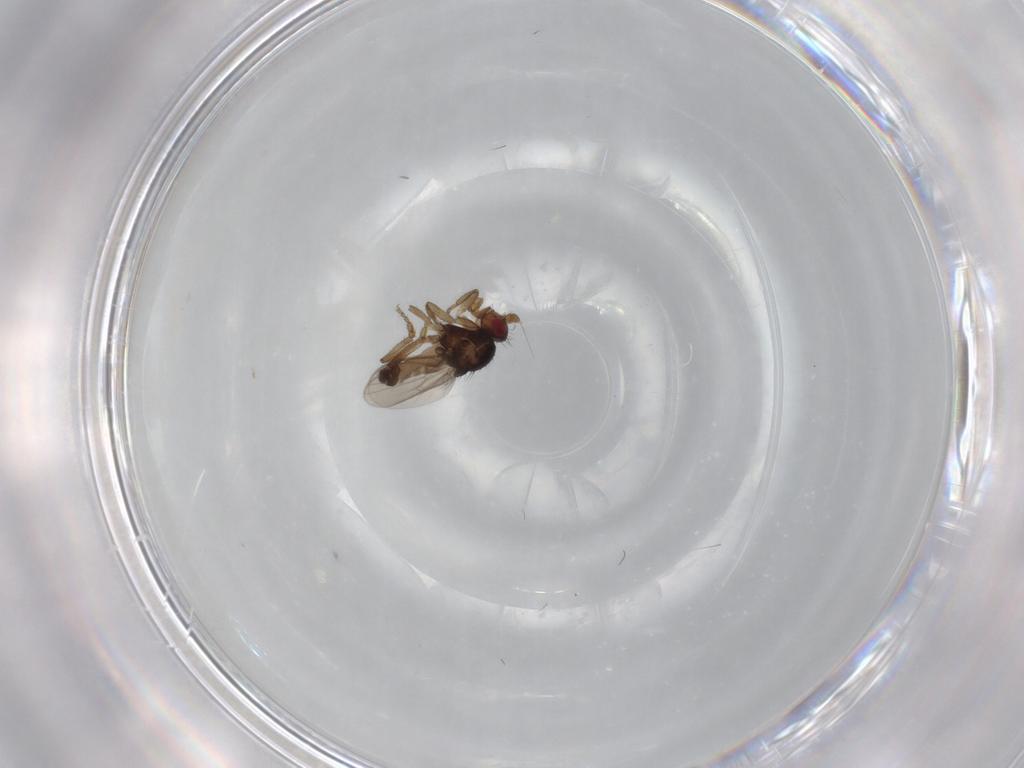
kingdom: Animalia
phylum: Arthropoda
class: Insecta
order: Diptera
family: Sphaeroceridae
